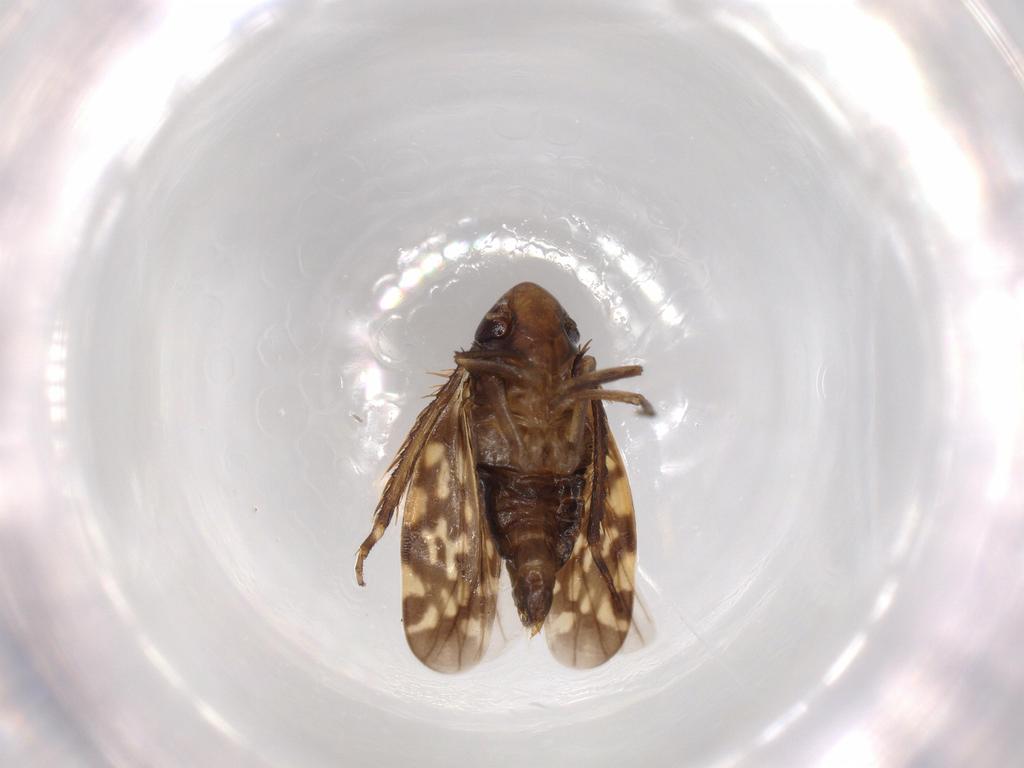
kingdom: Animalia
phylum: Arthropoda
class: Insecta
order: Hemiptera
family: Cicadellidae
